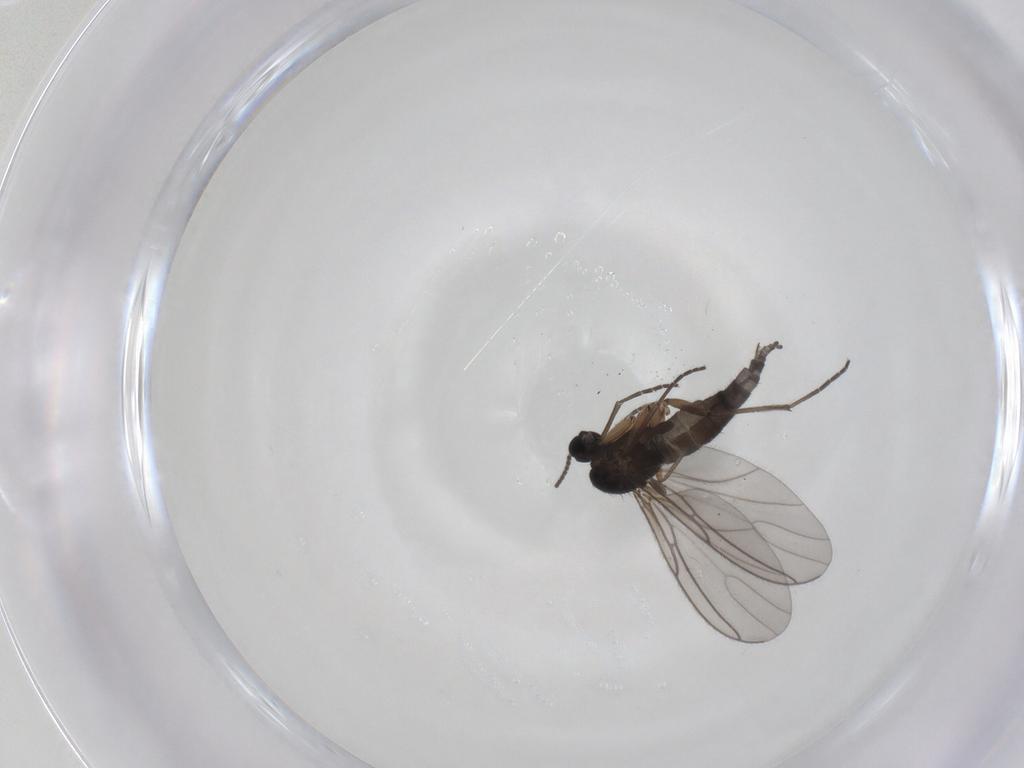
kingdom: Animalia
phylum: Arthropoda
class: Insecta
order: Diptera
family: Sciaridae
